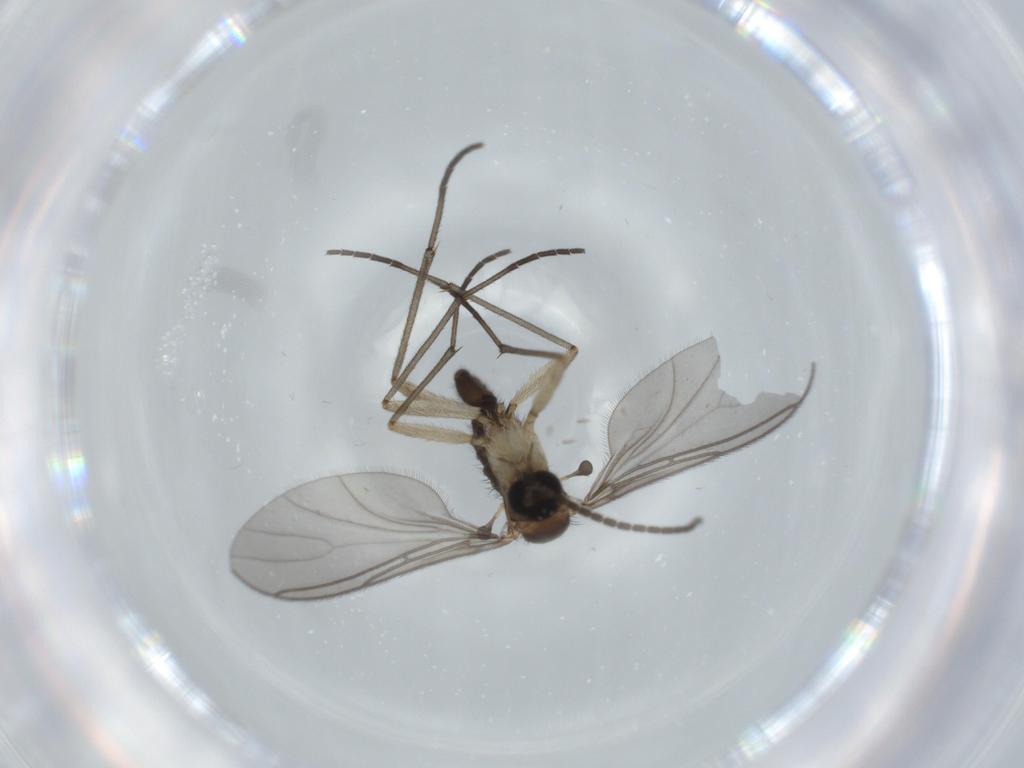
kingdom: Animalia
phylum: Arthropoda
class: Insecta
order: Diptera
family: Sciaridae
